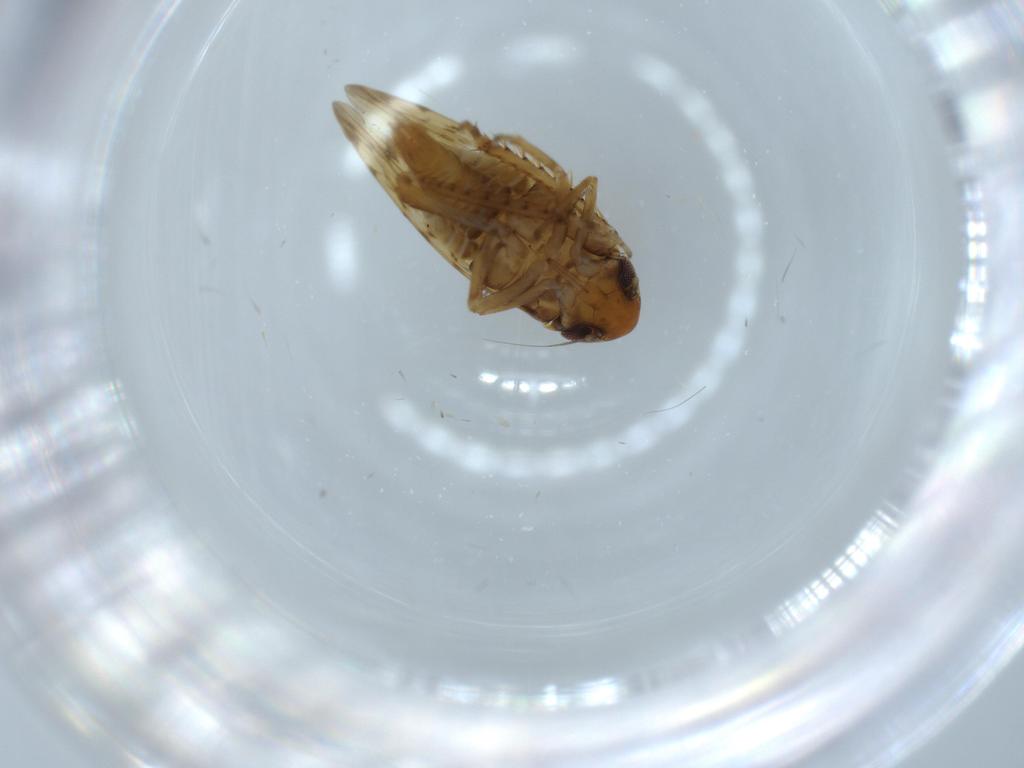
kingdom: Animalia
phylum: Arthropoda
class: Insecta
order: Hemiptera
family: Cicadellidae
